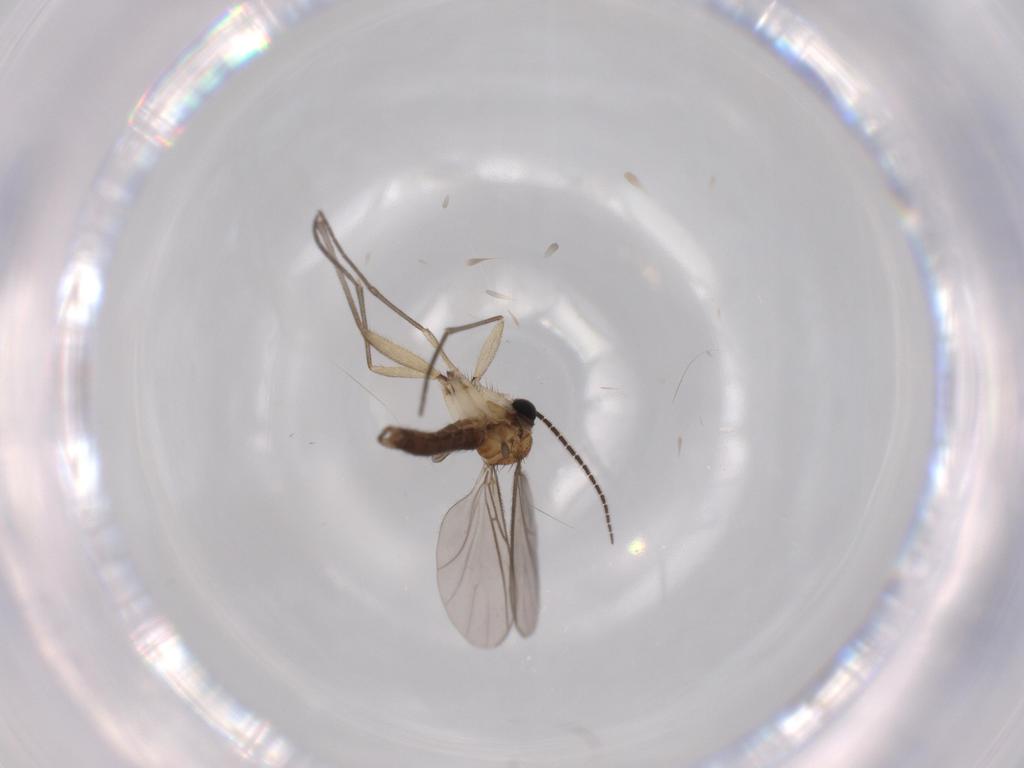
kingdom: Animalia
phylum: Arthropoda
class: Insecta
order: Diptera
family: Sciaridae
